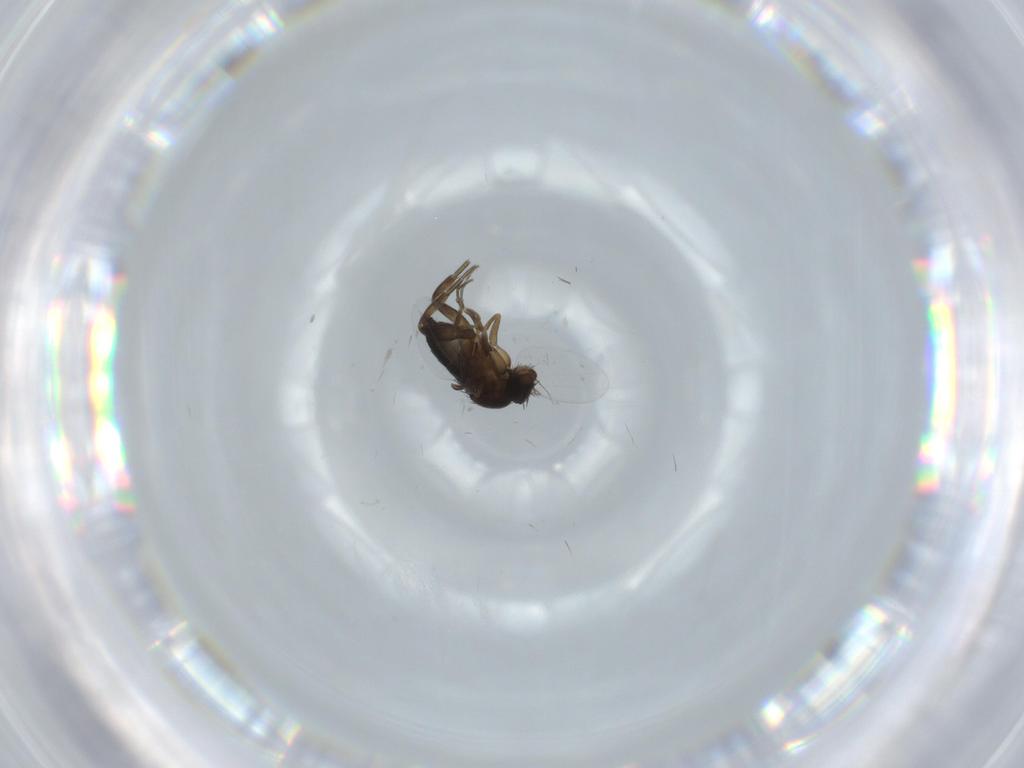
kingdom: Animalia
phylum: Arthropoda
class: Insecta
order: Diptera
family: Phoridae
